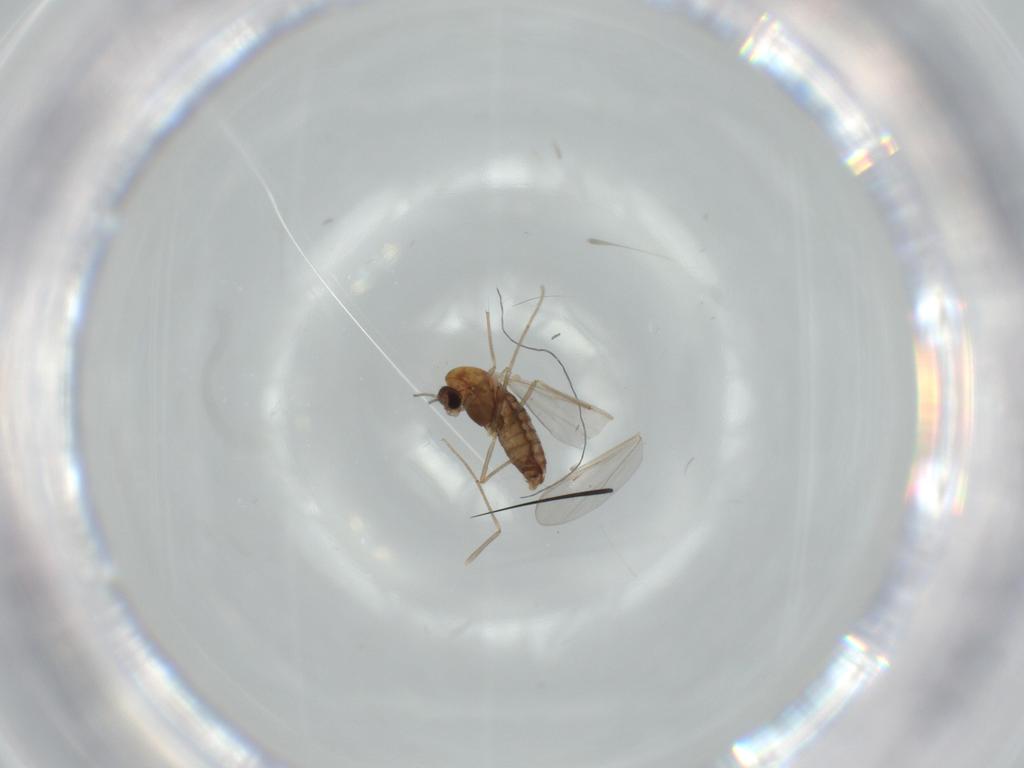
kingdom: Animalia
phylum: Arthropoda
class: Insecta
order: Diptera
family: Chironomidae
